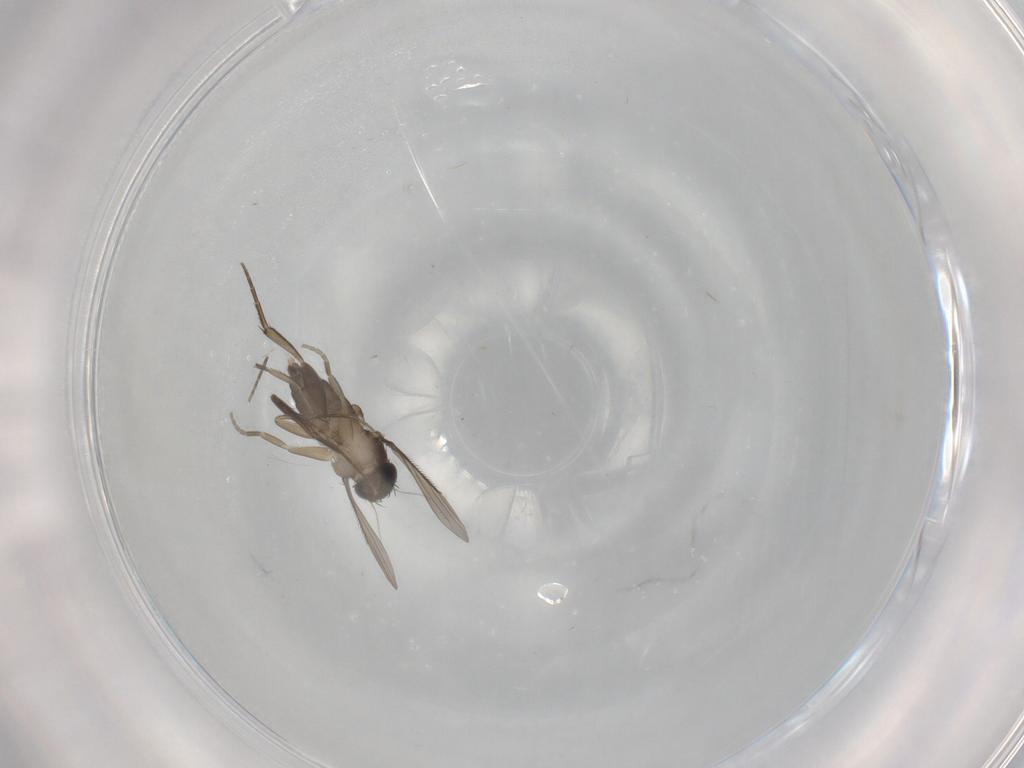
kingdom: Animalia
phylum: Arthropoda
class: Insecta
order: Diptera
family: Phoridae
